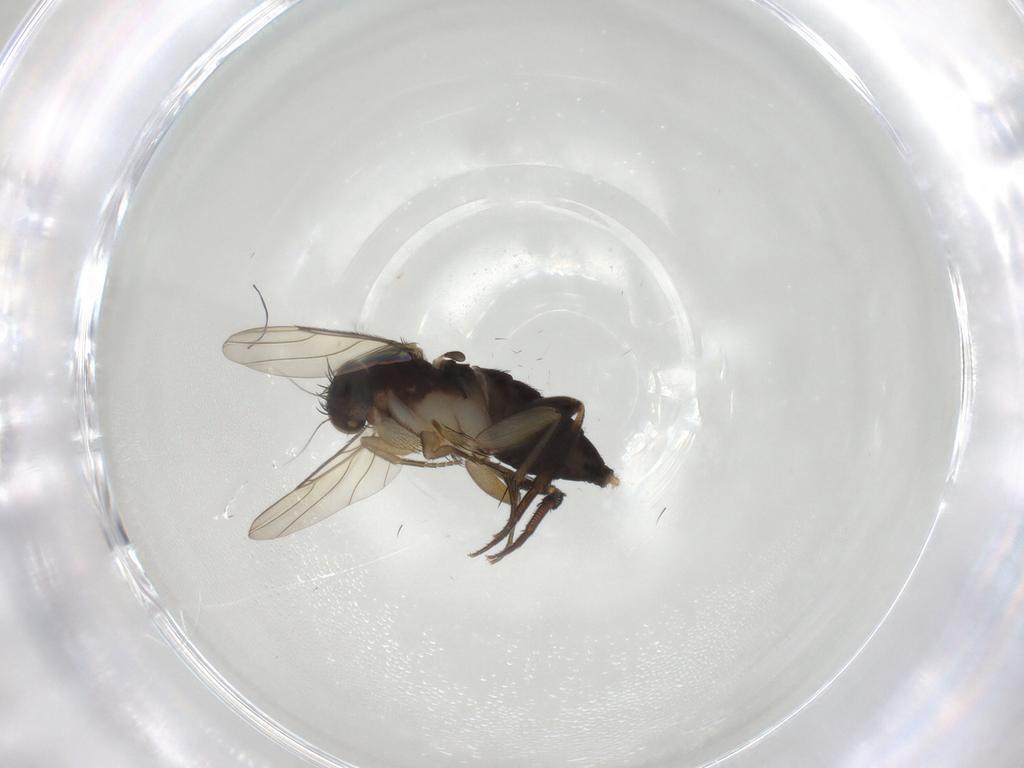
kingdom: Animalia
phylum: Arthropoda
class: Insecta
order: Diptera
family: Phoridae
